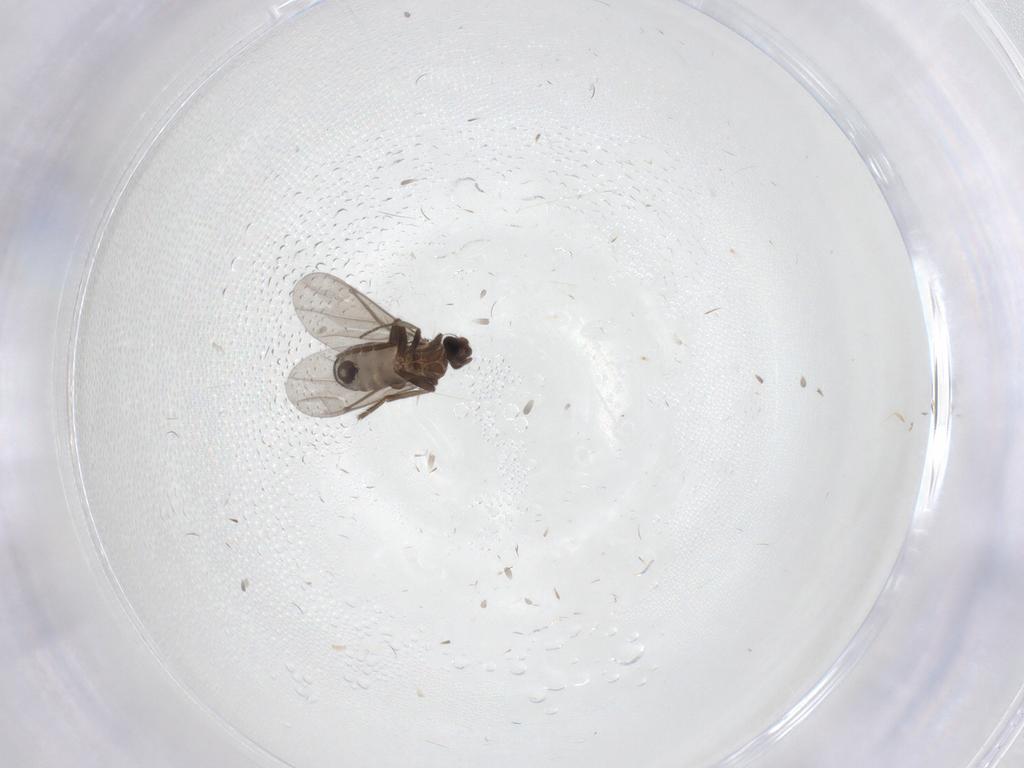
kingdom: Animalia
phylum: Arthropoda
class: Insecta
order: Diptera
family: Phoridae
